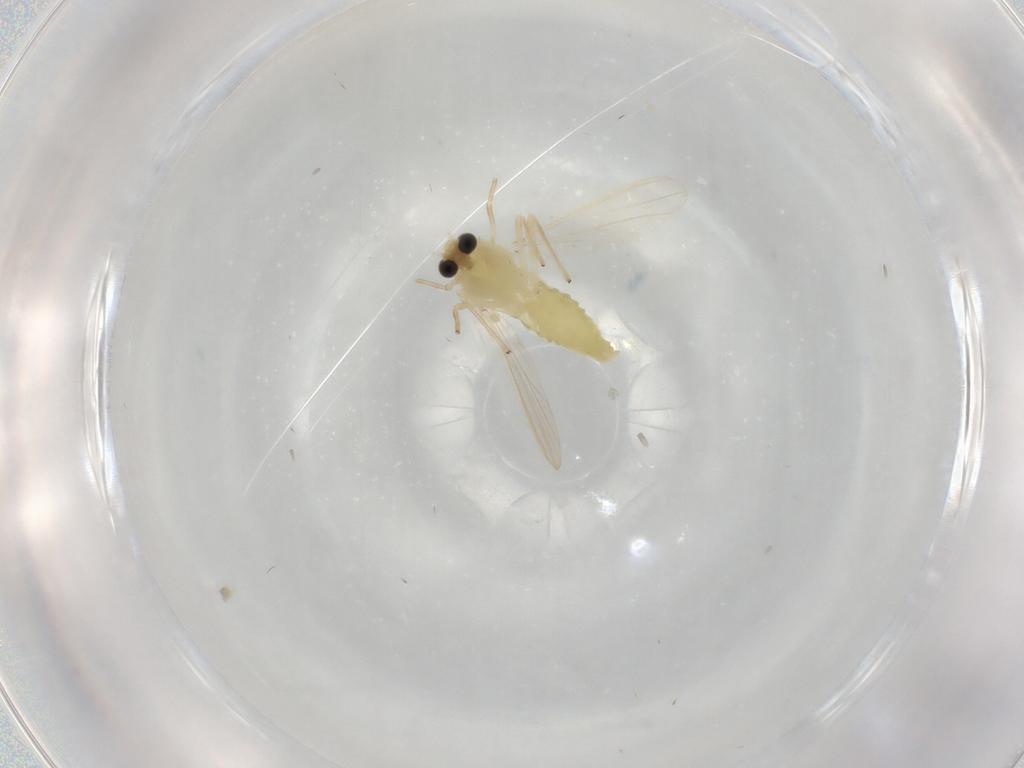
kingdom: Animalia
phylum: Arthropoda
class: Insecta
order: Diptera
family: Chironomidae
